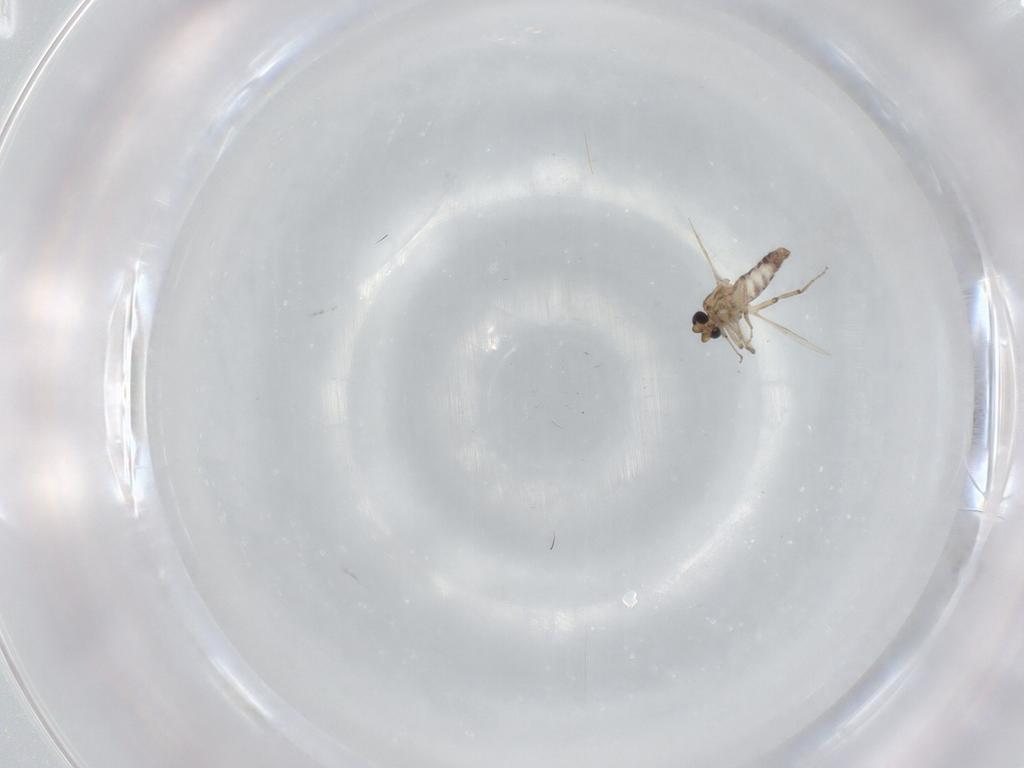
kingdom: Animalia
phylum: Arthropoda
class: Insecta
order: Diptera
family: Ceratopogonidae
